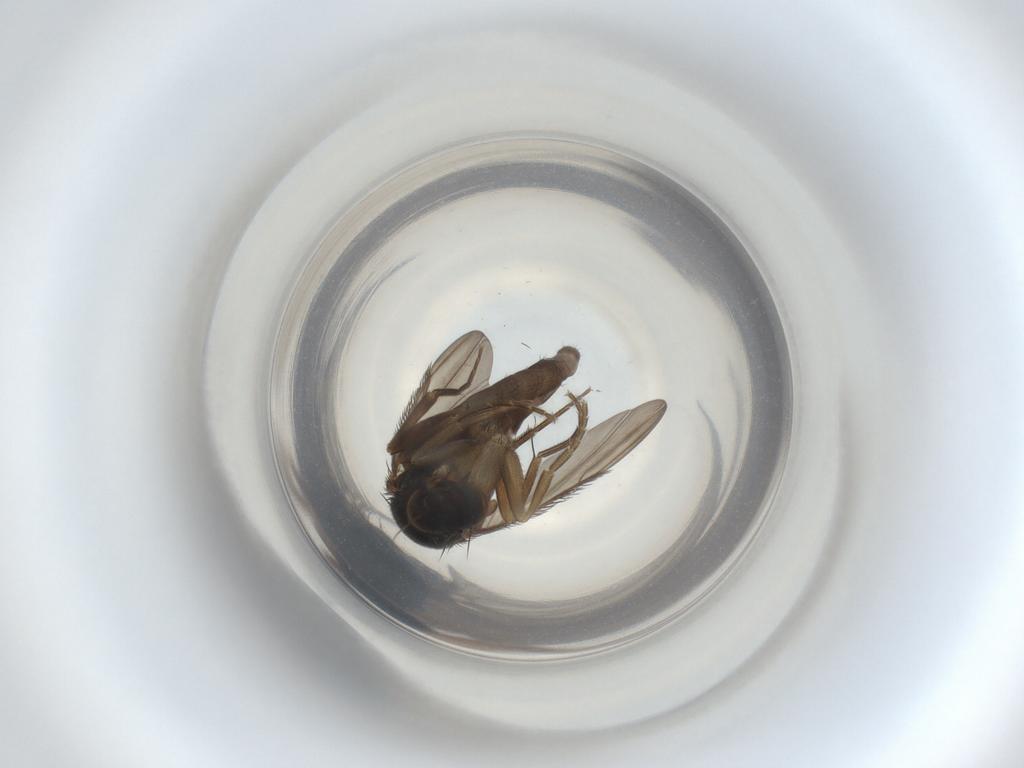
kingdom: Animalia
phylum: Arthropoda
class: Insecta
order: Diptera
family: Phoridae
